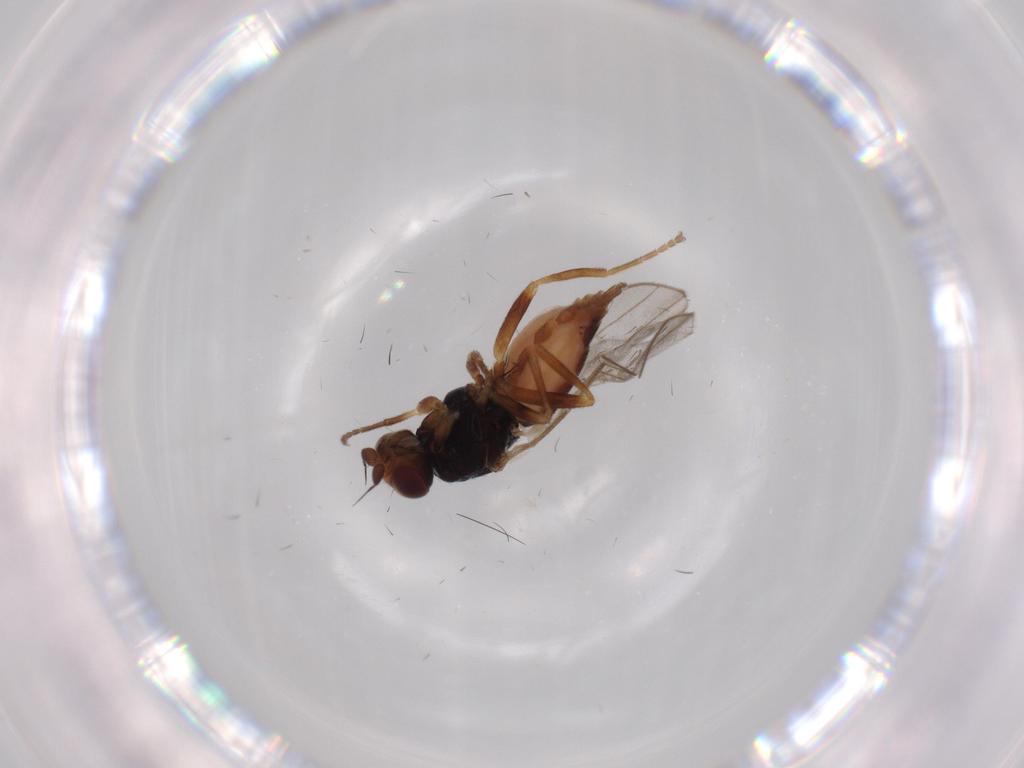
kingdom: Animalia
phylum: Arthropoda
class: Insecta
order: Diptera
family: Chloropidae
